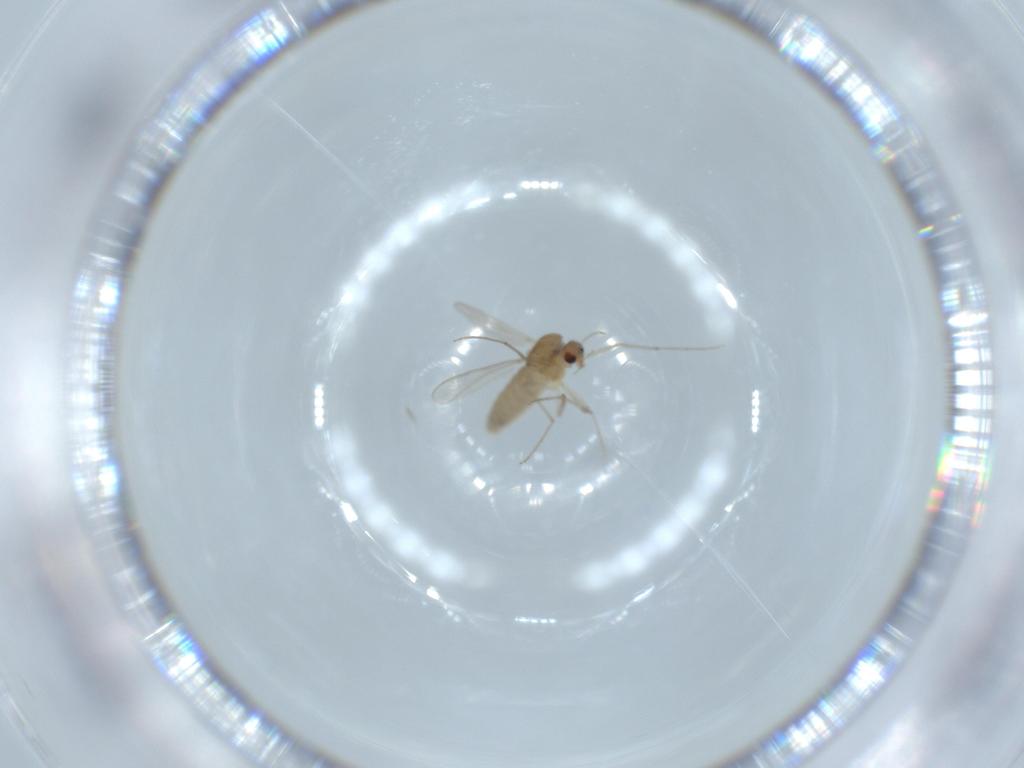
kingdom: Animalia
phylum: Arthropoda
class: Insecta
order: Diptera
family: Chironomidae
